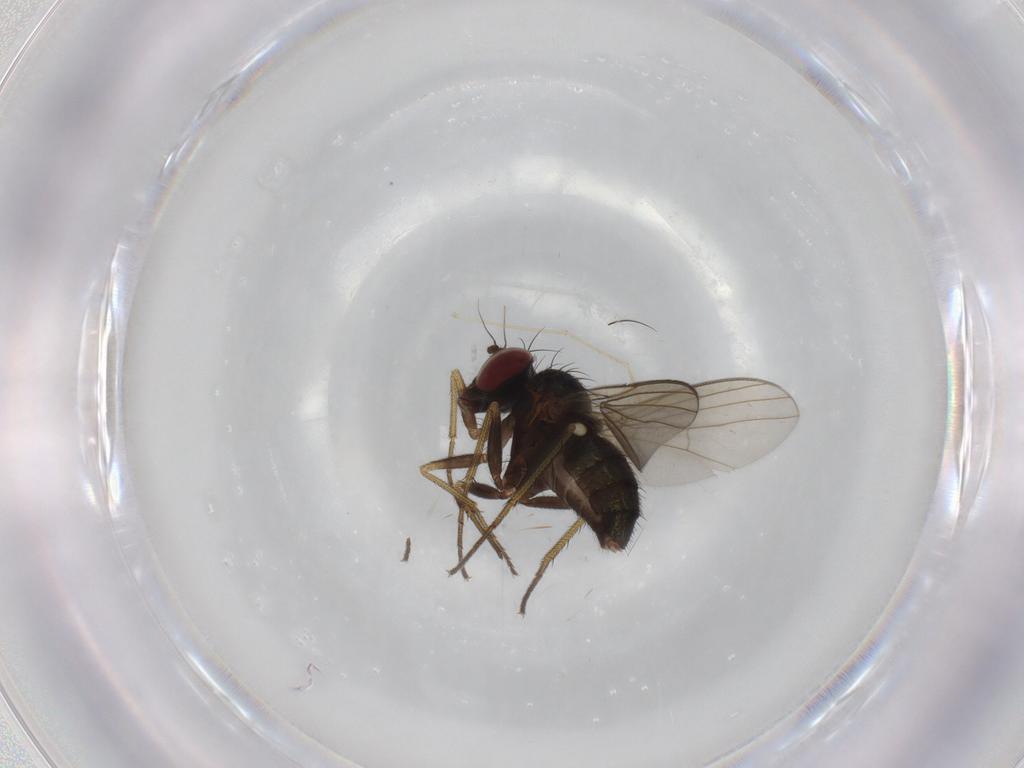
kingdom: Animalia
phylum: Arthropoda
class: Insecta
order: Diptera
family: Dolichopodidae
